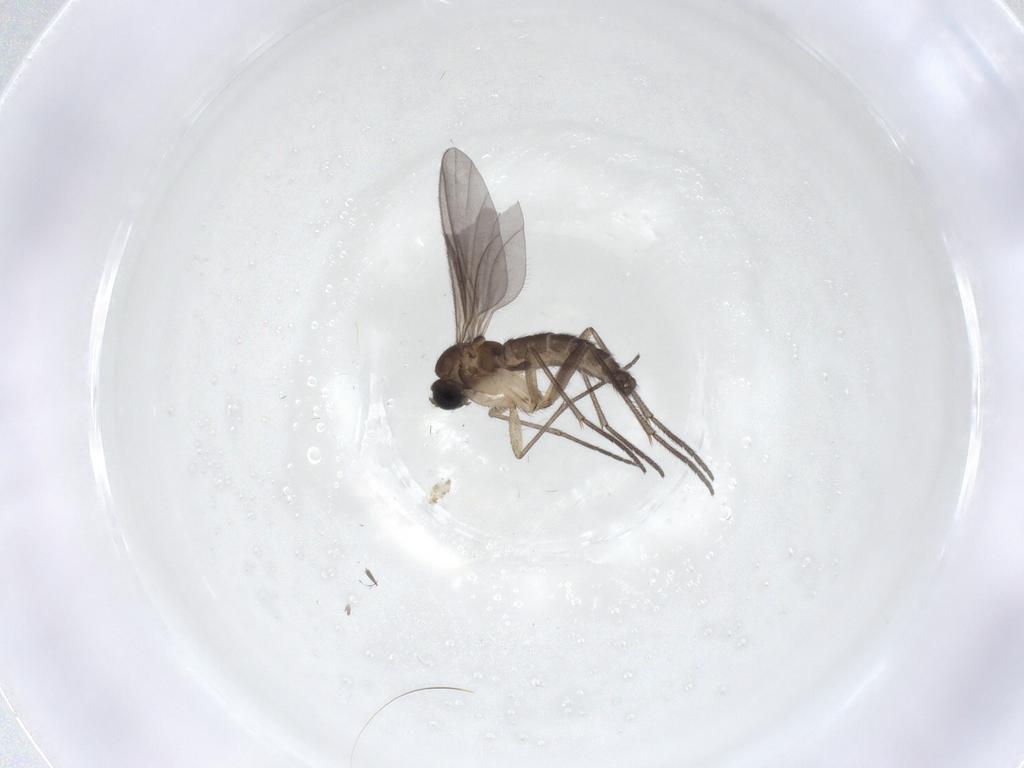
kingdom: Animalia
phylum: Arthropoda
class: Insecta
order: Diptera
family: Sciaridae
